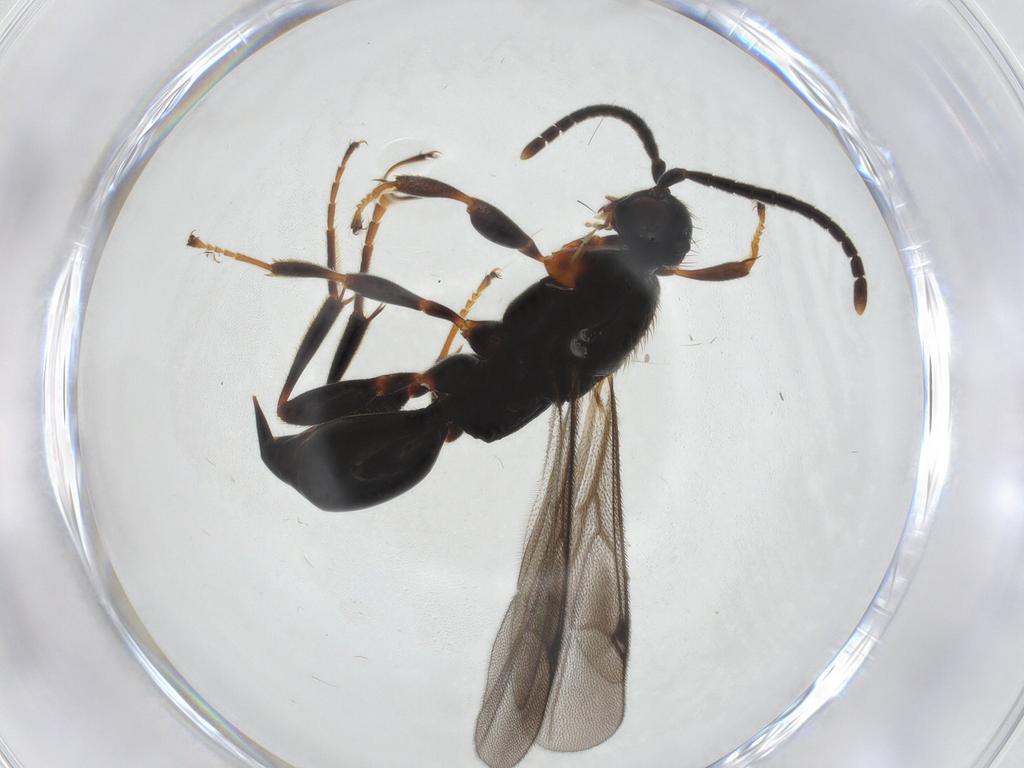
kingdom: Animalia
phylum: Arthropoda
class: Insecta
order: Hymenoptera
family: Proctotrupidae
